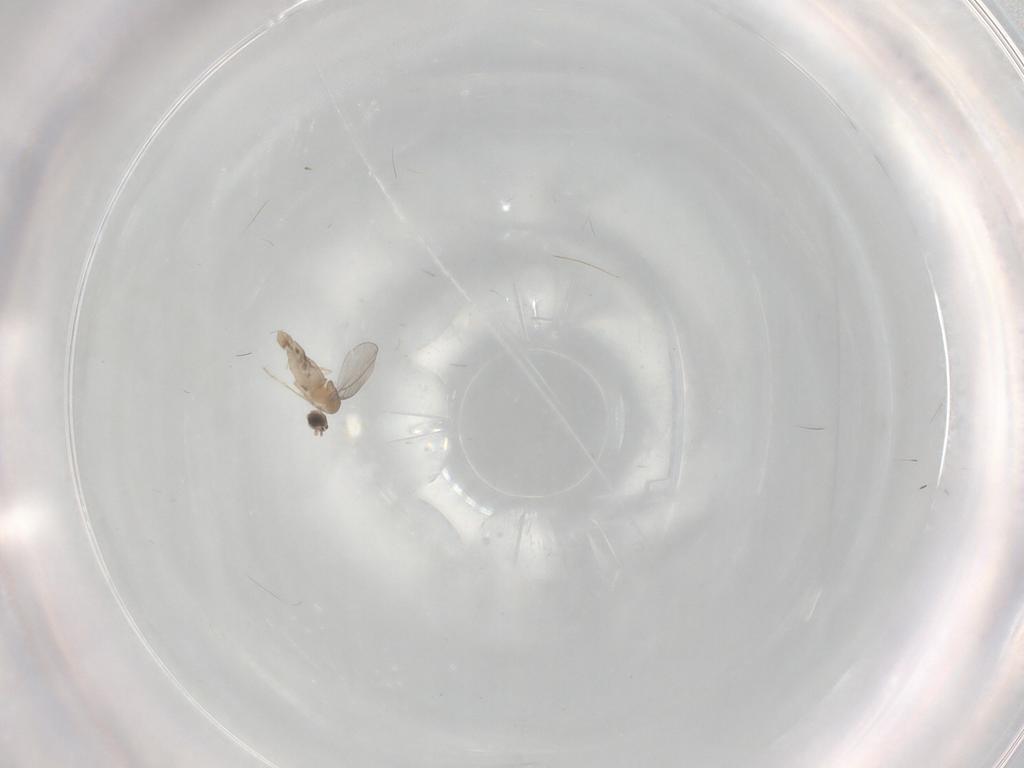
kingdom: Animalia
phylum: Arthropoda
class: Insecta
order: Diptera
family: Cecidomyiidae
